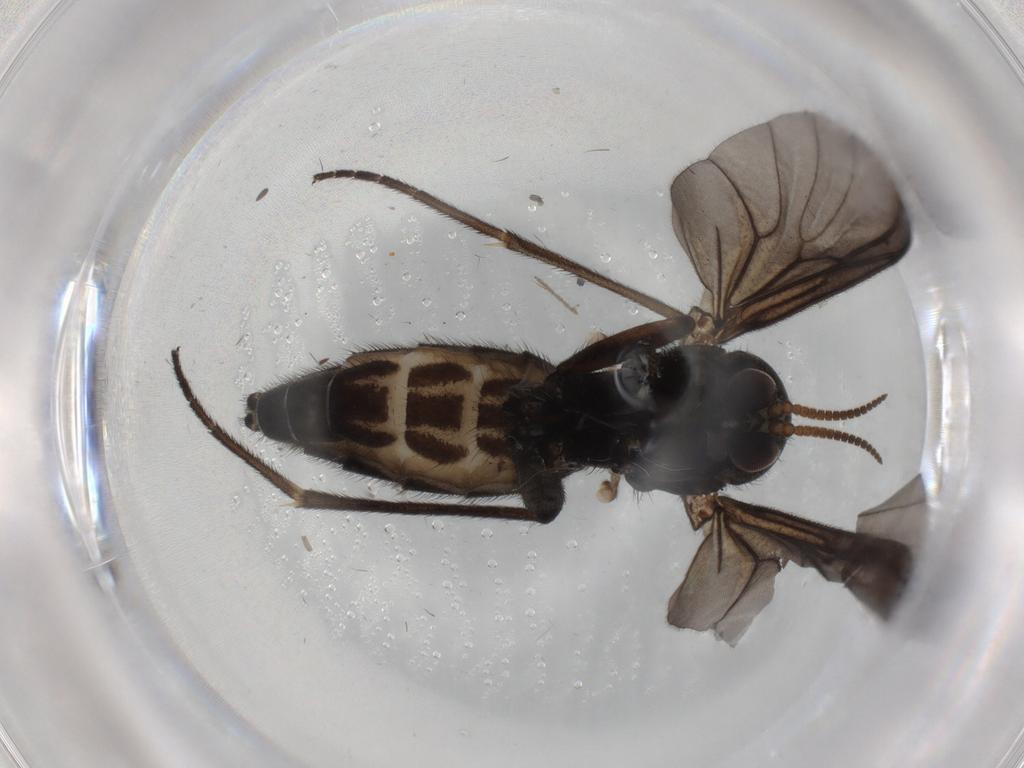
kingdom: Animalia
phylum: Arthropoda
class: Insecta
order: Diptera
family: Mycetophilidae
